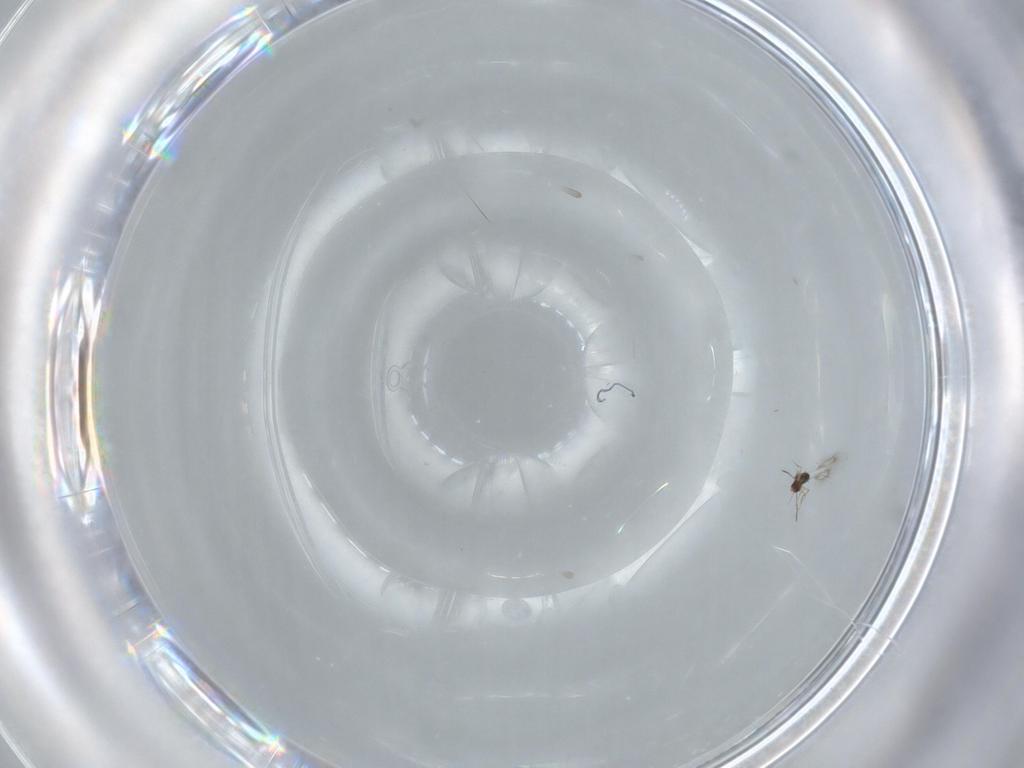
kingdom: Animalia
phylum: Arthropoda
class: Insecta
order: Hymenoptera
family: Mymarommatidae
